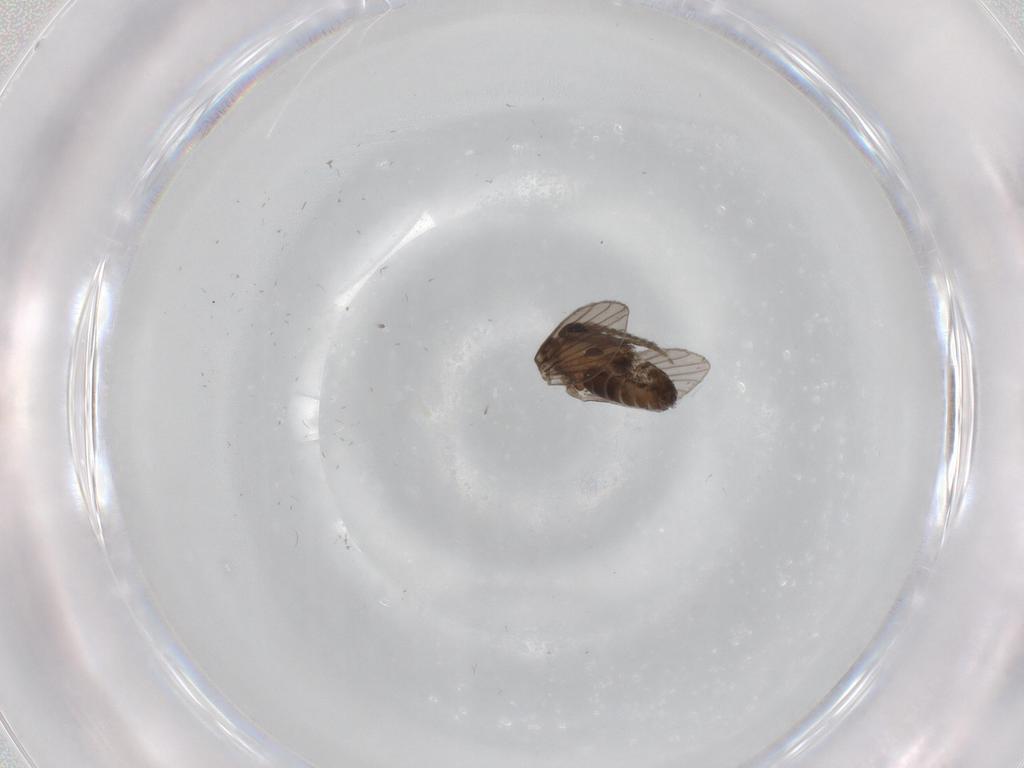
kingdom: Animalia
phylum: Arthropoda
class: Insecta
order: Diptera
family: Psychodidae
